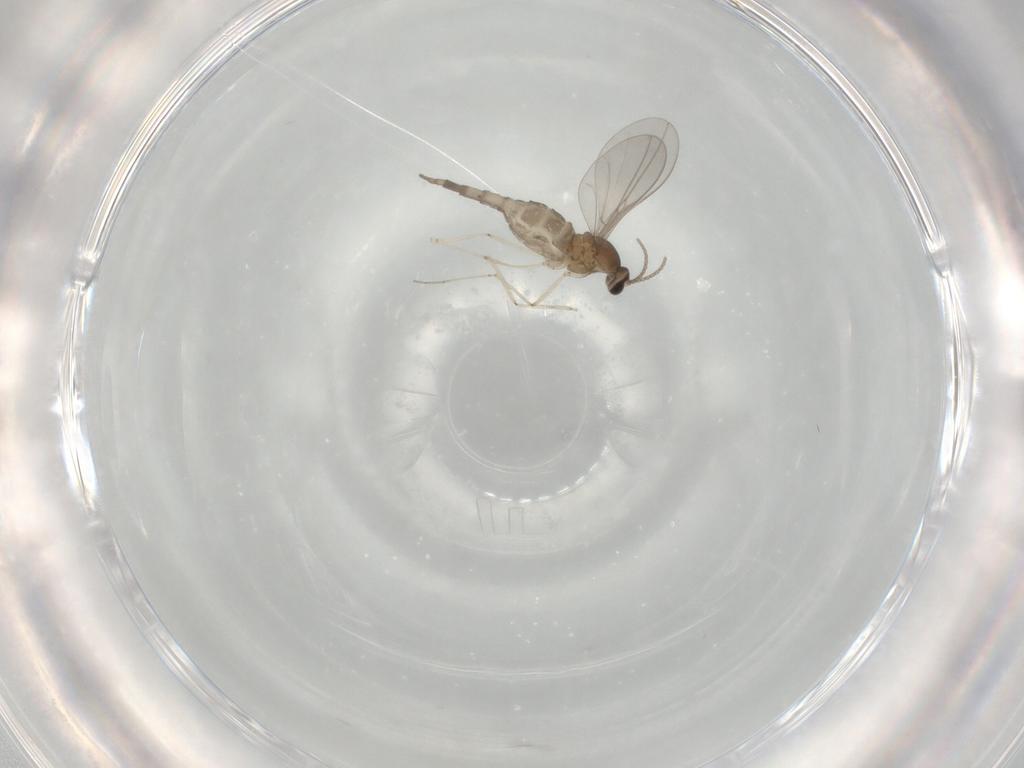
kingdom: Animalia
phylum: Arthropoda
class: Insecta
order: Diptera
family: Cecidomyiidae
